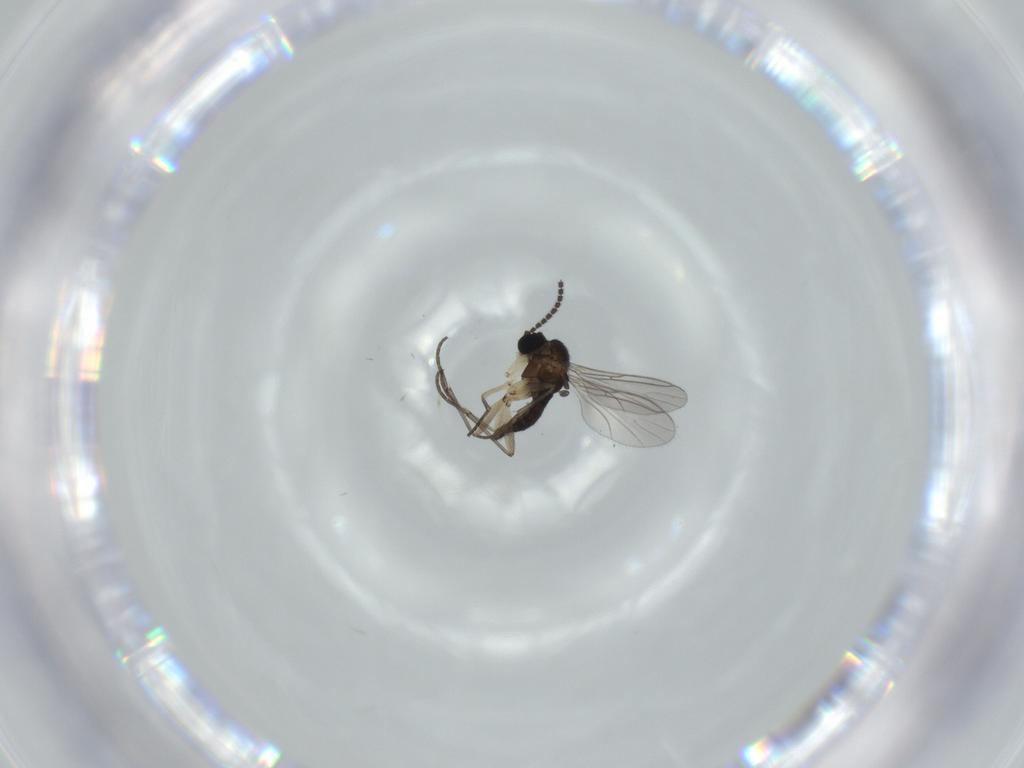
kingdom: Animalia
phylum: Arthropoda
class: Insecta
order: Diptera
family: Sciaridae
